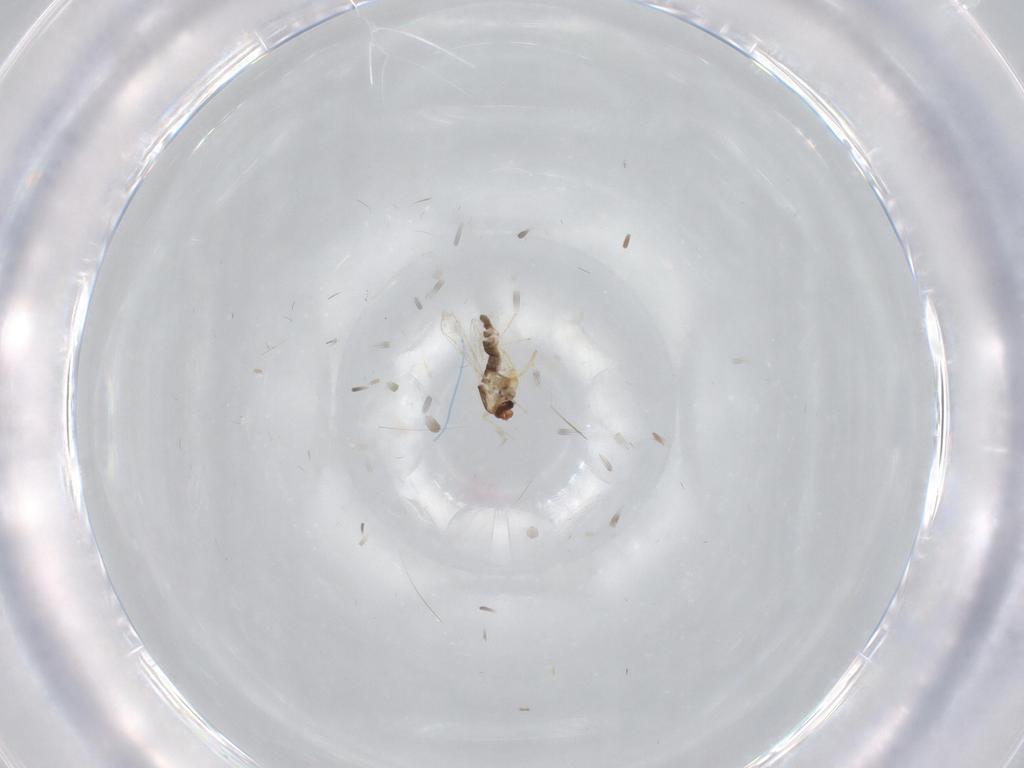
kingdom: Animalia
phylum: Arthropoda
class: Insecta
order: Diptera
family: Chironomidae
